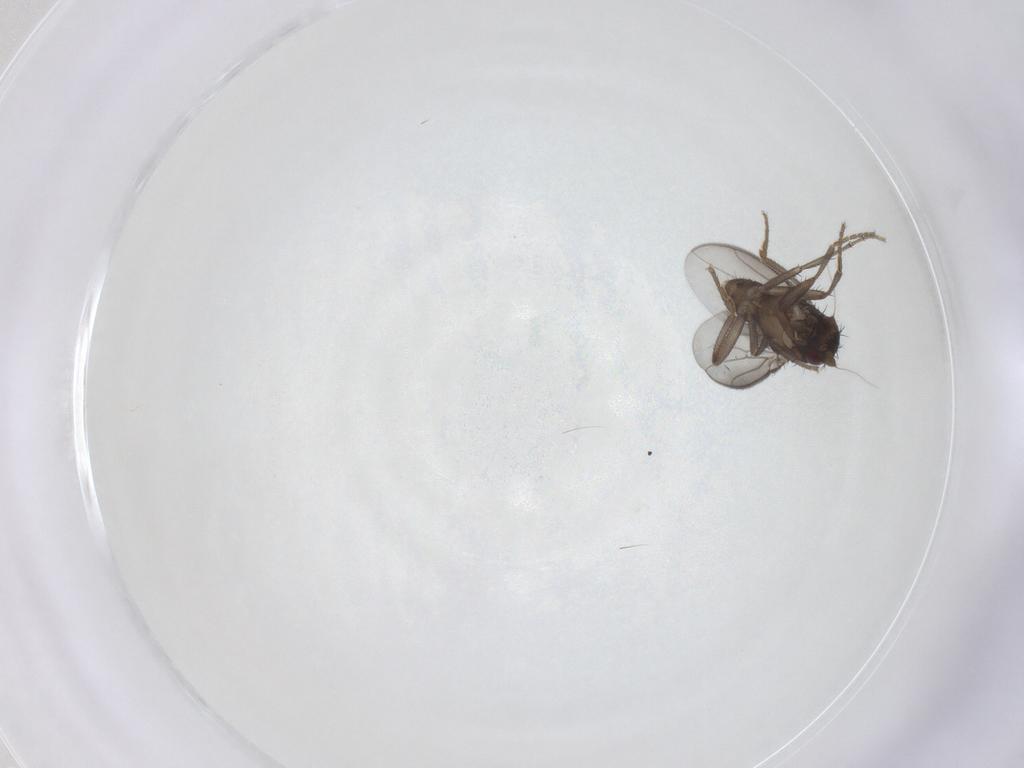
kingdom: Animalia
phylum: Arthropoda
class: Insecta
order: Diptera
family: Sphaeroceridae
